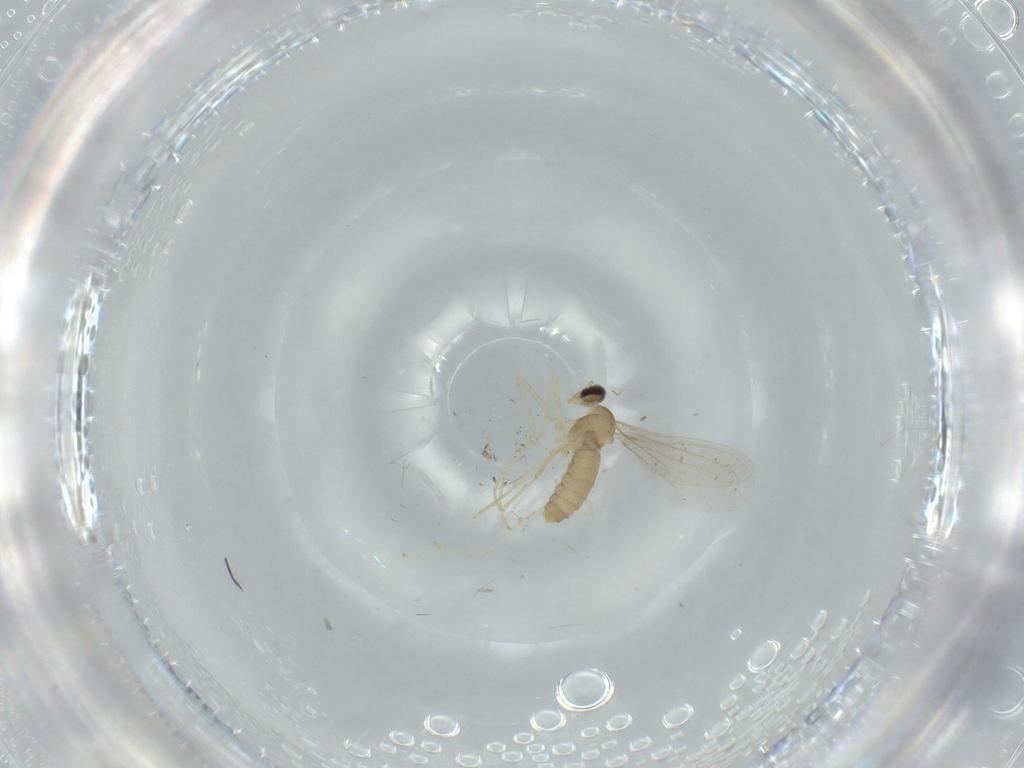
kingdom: Animalia
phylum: Arthropoda
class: Insecta
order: Diptera
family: Cecidomyiidae
